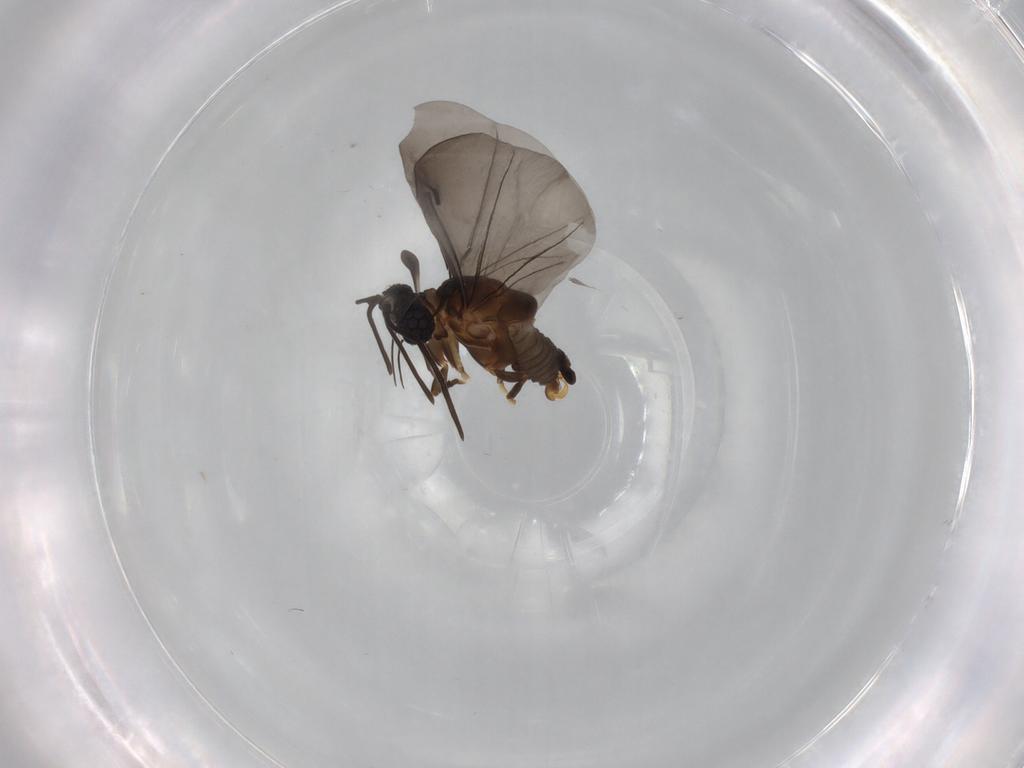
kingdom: Animalia
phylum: Arthropoda
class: Insecta
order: Strepsiptera
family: Myrmecolacidae
